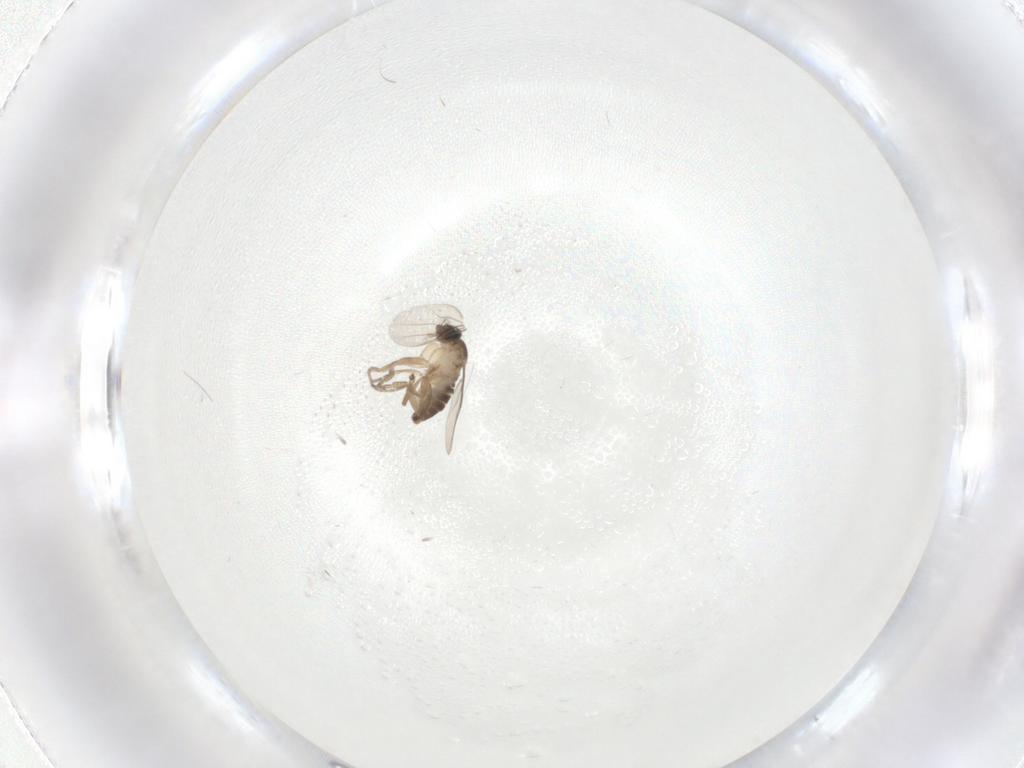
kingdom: Animalia
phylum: Arthropoda
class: Insecta
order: Diptera
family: Phoridae
